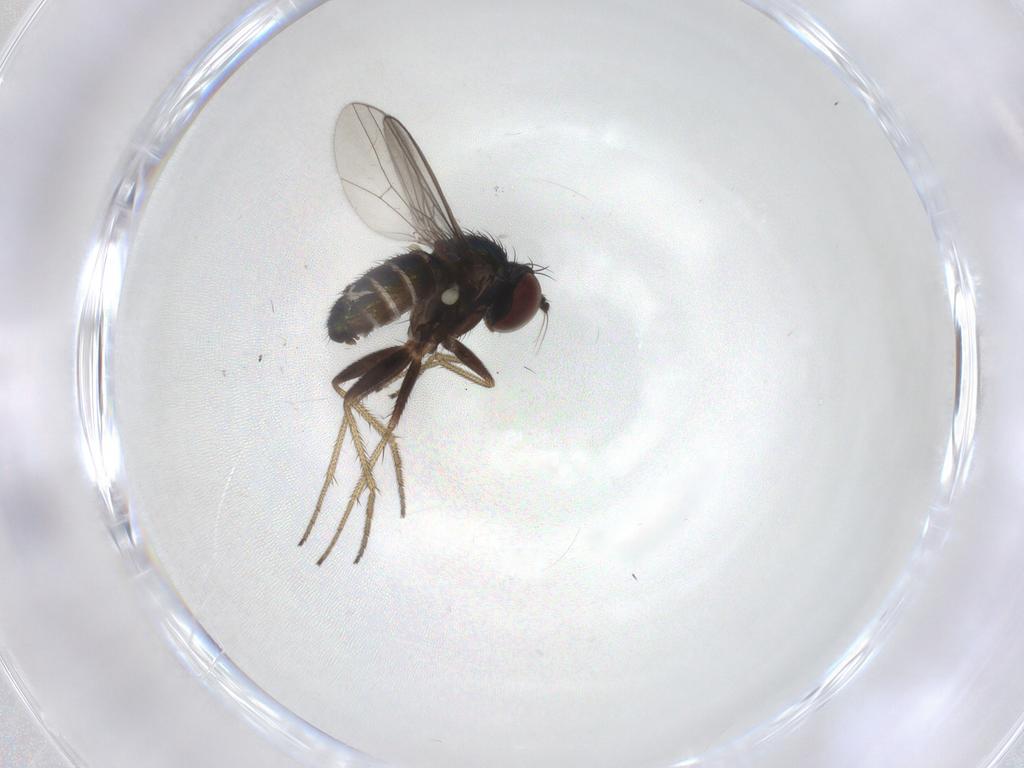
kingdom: Animalia
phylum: Arthropoda
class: Insecta
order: Diptera
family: Dolichopodidae
